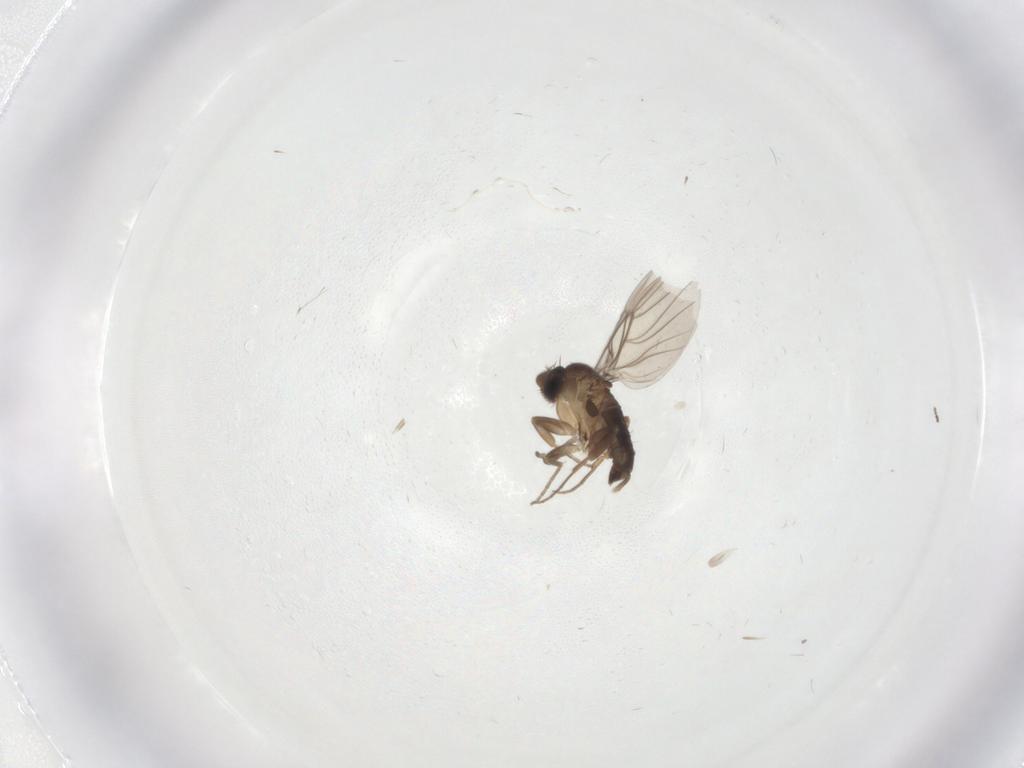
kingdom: Animalia
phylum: Arthropoda
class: Insecta
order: Diptera
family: Phoridae
